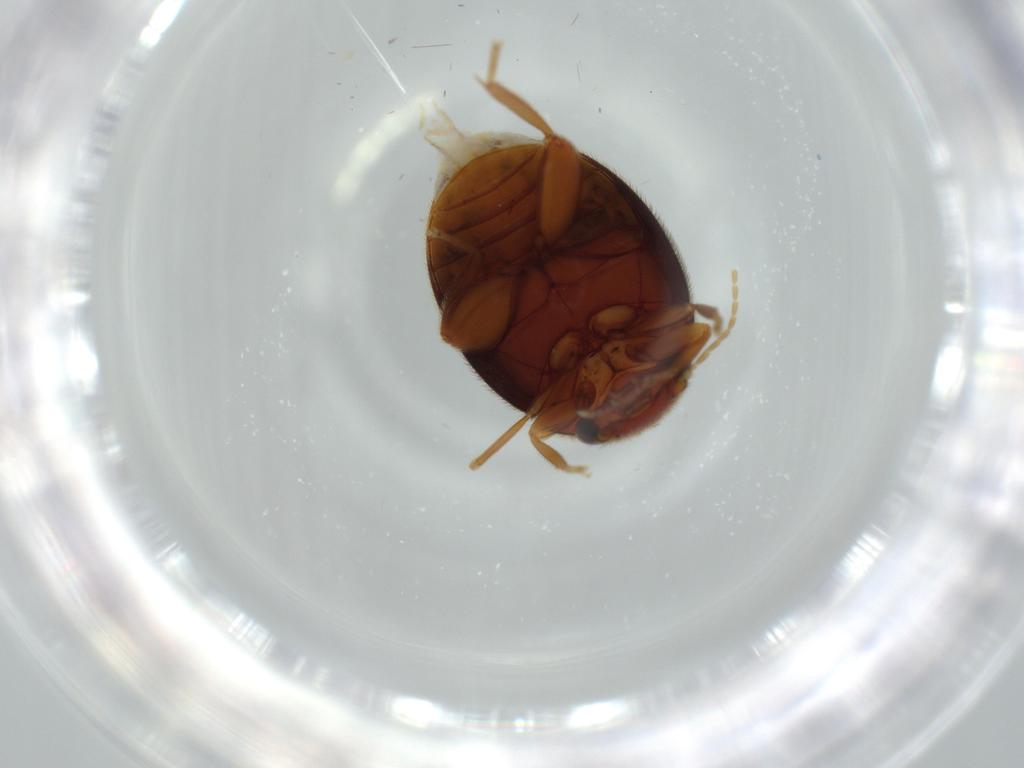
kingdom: Animalia
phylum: Arthropoda
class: Insecta
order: Coleoptera
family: Scirtidae
